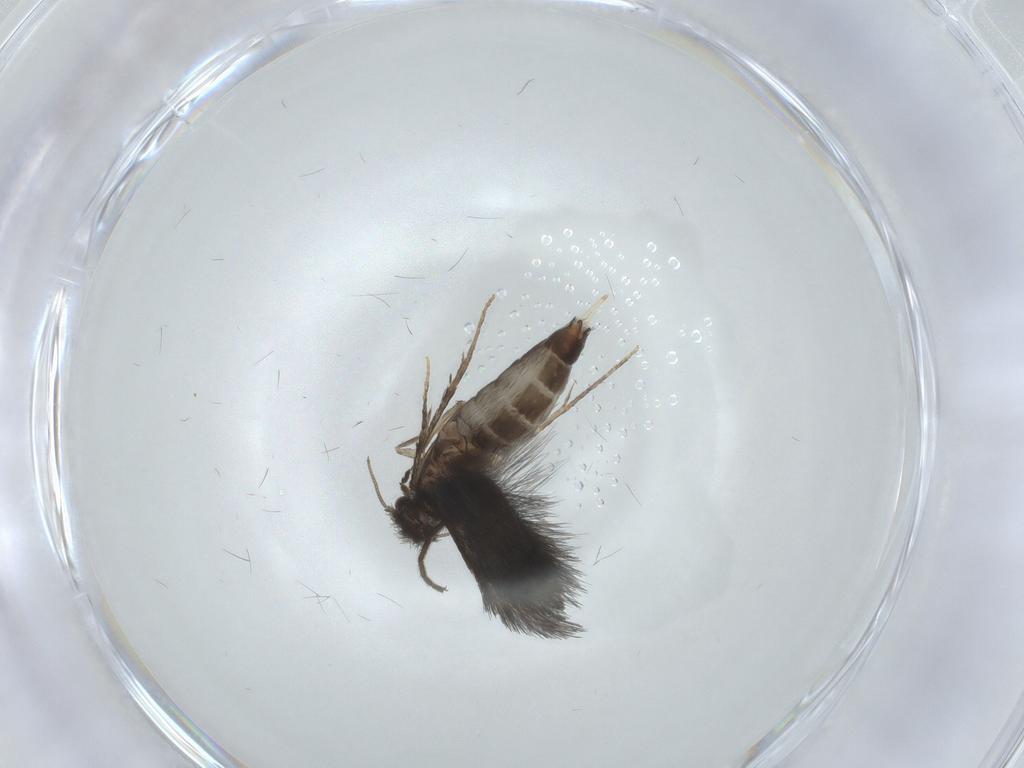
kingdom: Animalia
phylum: Arthropoda
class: Insecta
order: Trichoptera
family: Hydroptilidae
